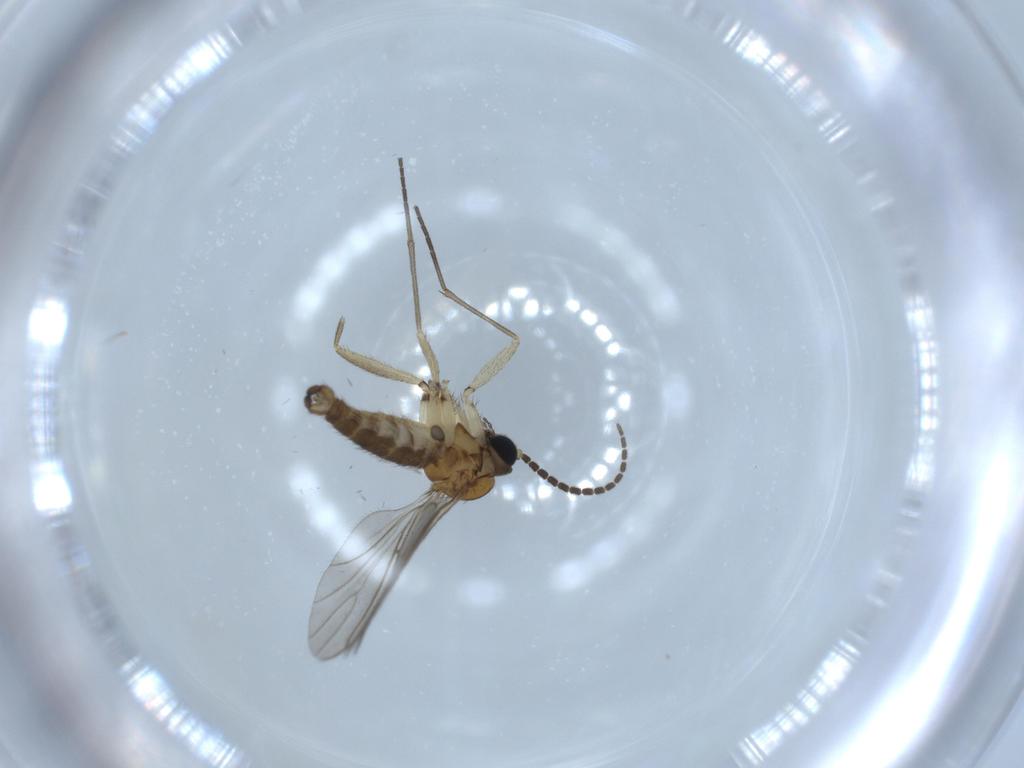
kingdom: Animalia
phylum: Arthropoda
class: Insecta
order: Diptera
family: Sciaridae
